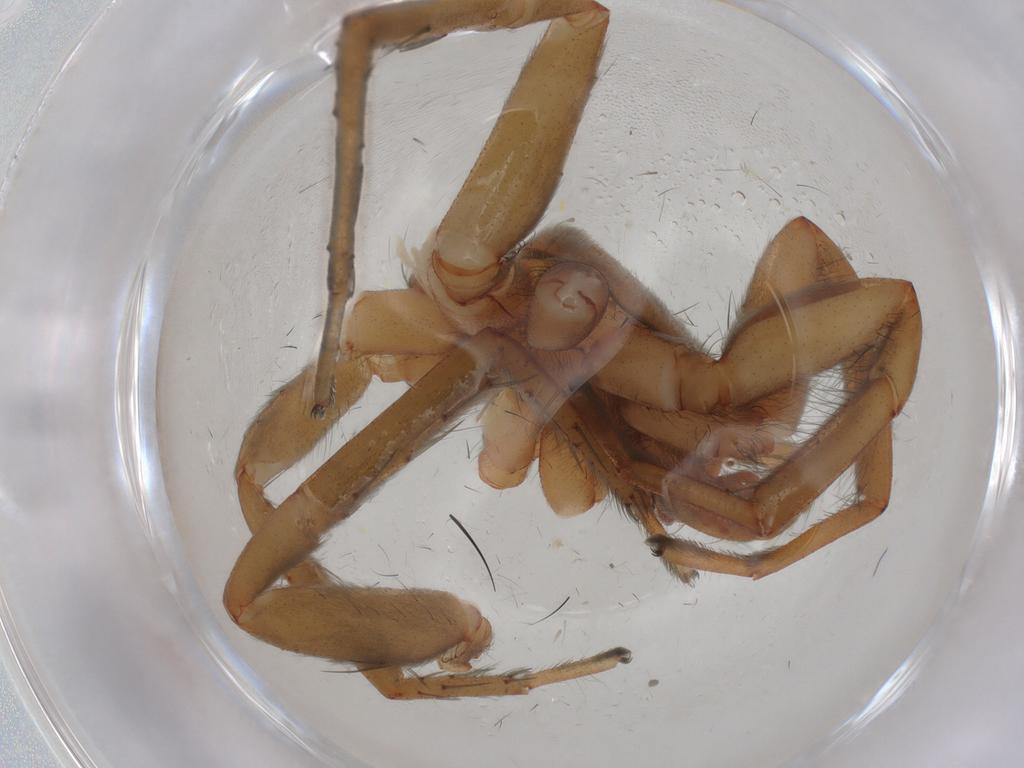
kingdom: Animalia
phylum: Arthropoda
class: Arachnida
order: Araneae
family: Gnaphosidae
